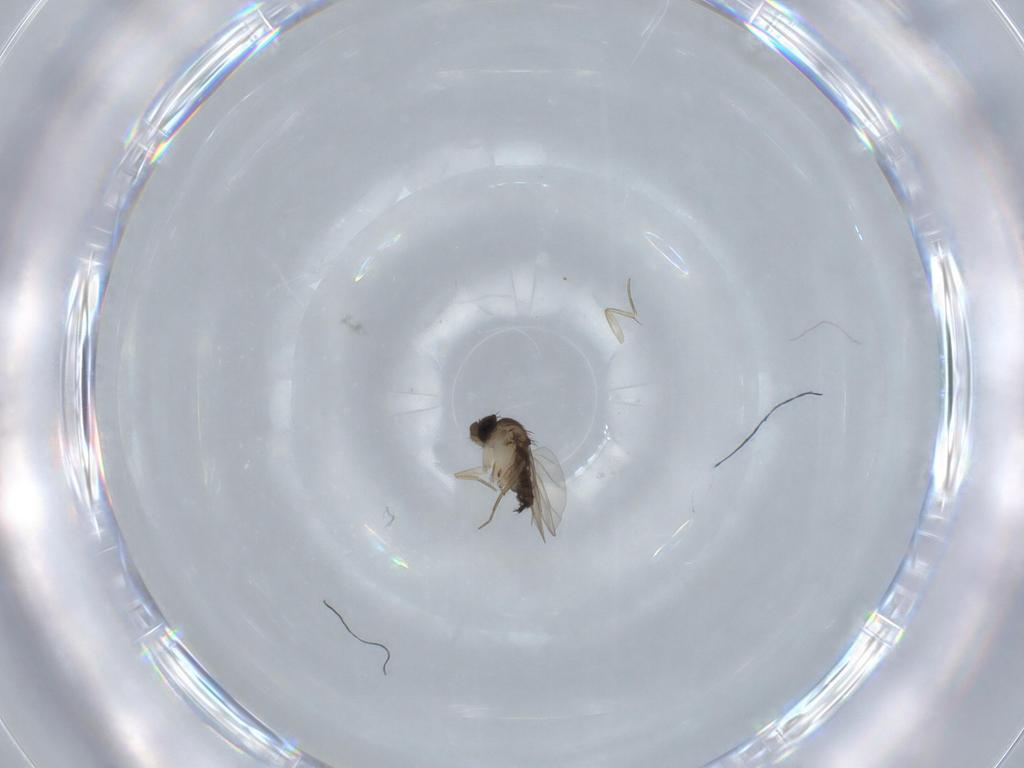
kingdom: Animalia
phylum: Arthropoda
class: Insecta
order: Diptera
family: Phoridae
